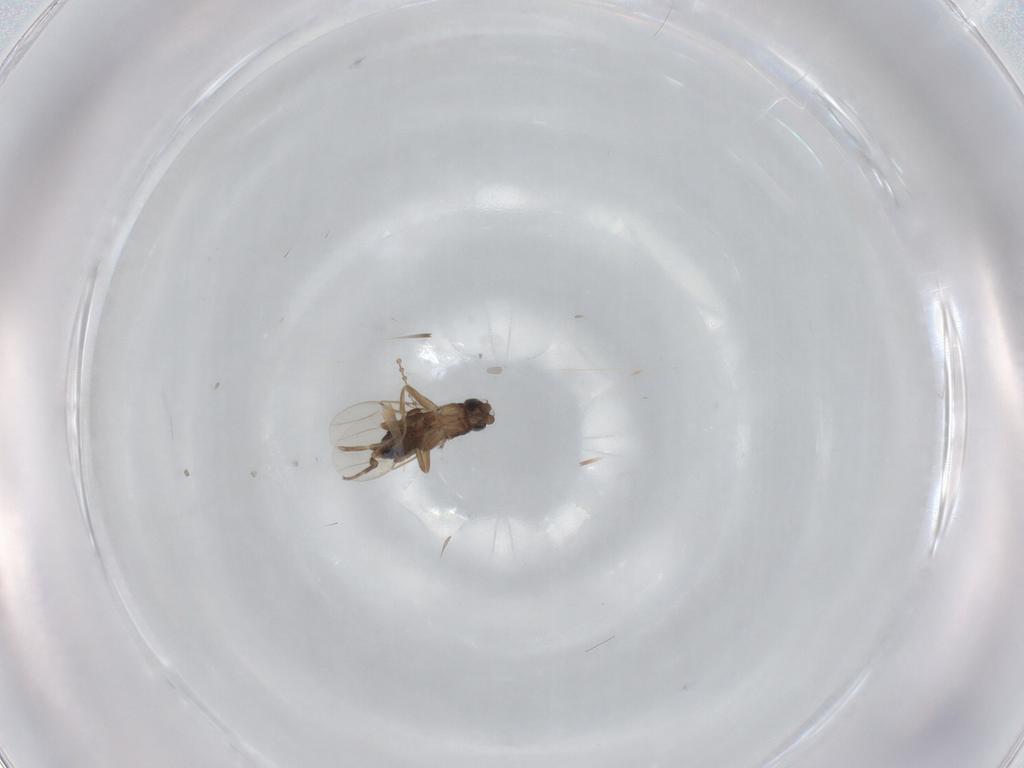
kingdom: Animalia
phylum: Arthropoda
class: Insecta
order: Diptera
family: Cecidomyiidae
